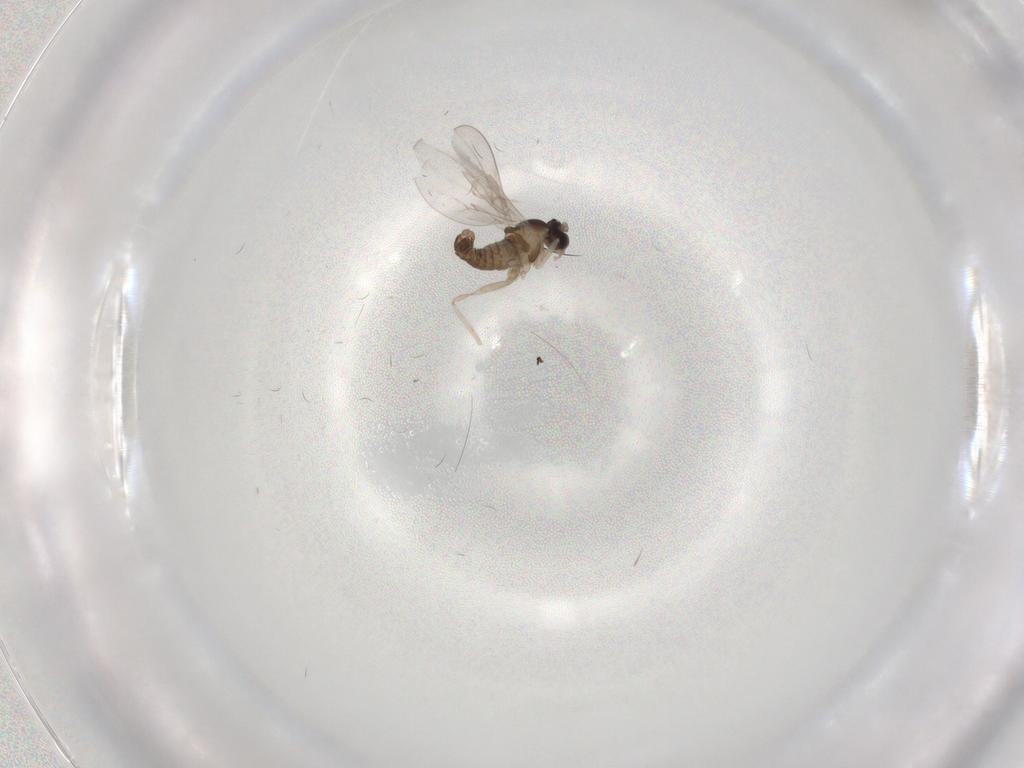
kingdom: Animalia
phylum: Arthropoda
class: Insecta
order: Diptera
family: Cecidomyiidae
